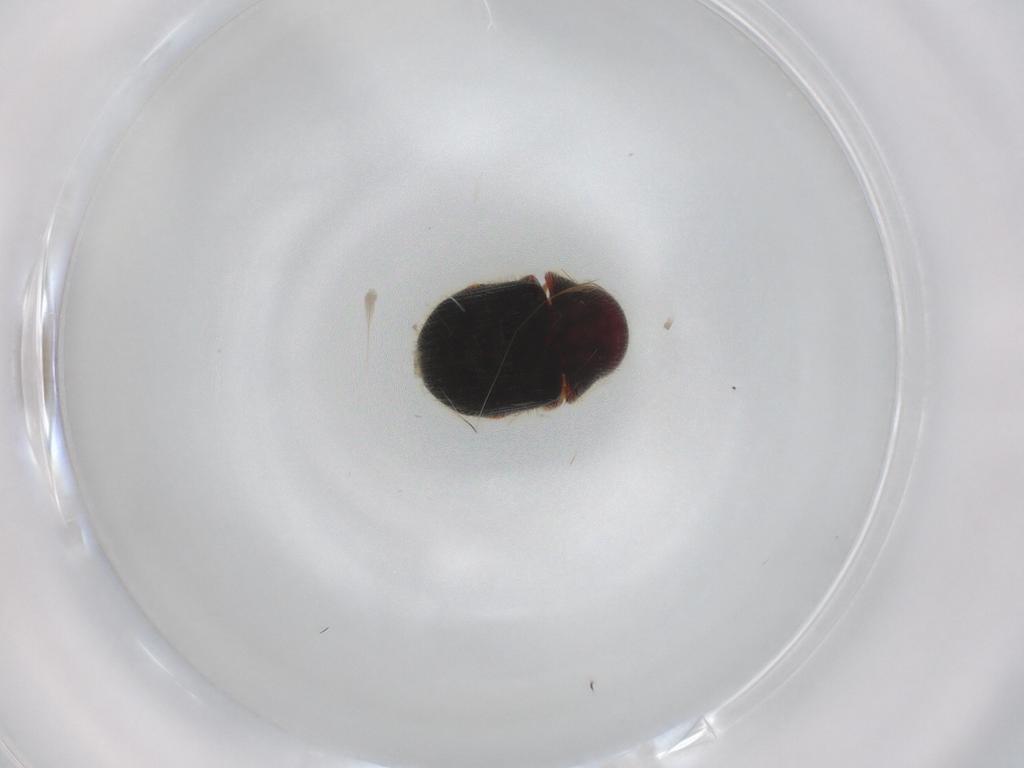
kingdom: Animalia
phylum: Arthropoda
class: Insecta
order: Coleoptera
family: Ptinidae
